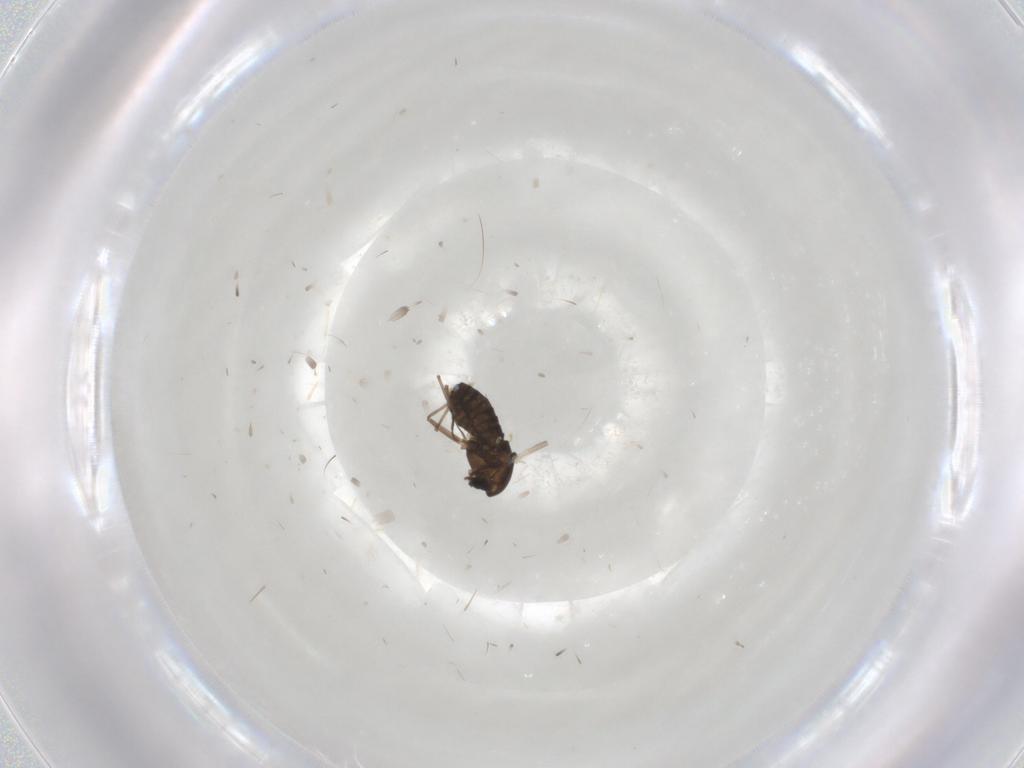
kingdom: Animalia
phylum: Arthropoda
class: Insecta
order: Diptera
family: Chironomidae
